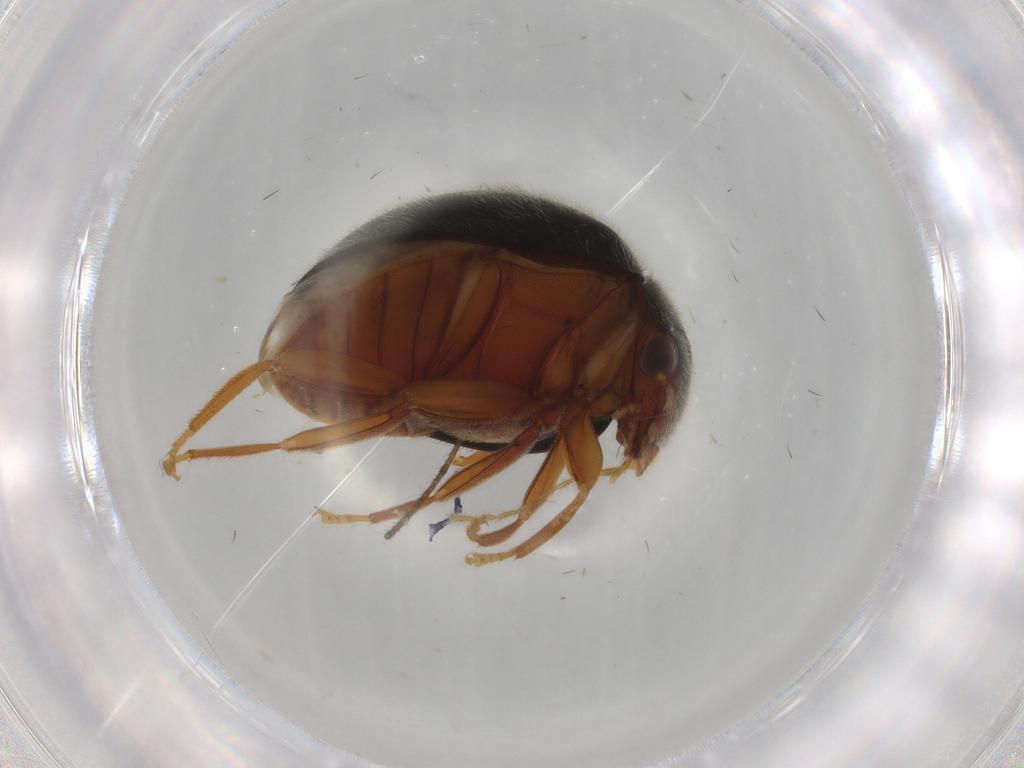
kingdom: Animalia
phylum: Arthropoda
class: Insecta
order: Coleoptera
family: Scirtidae
